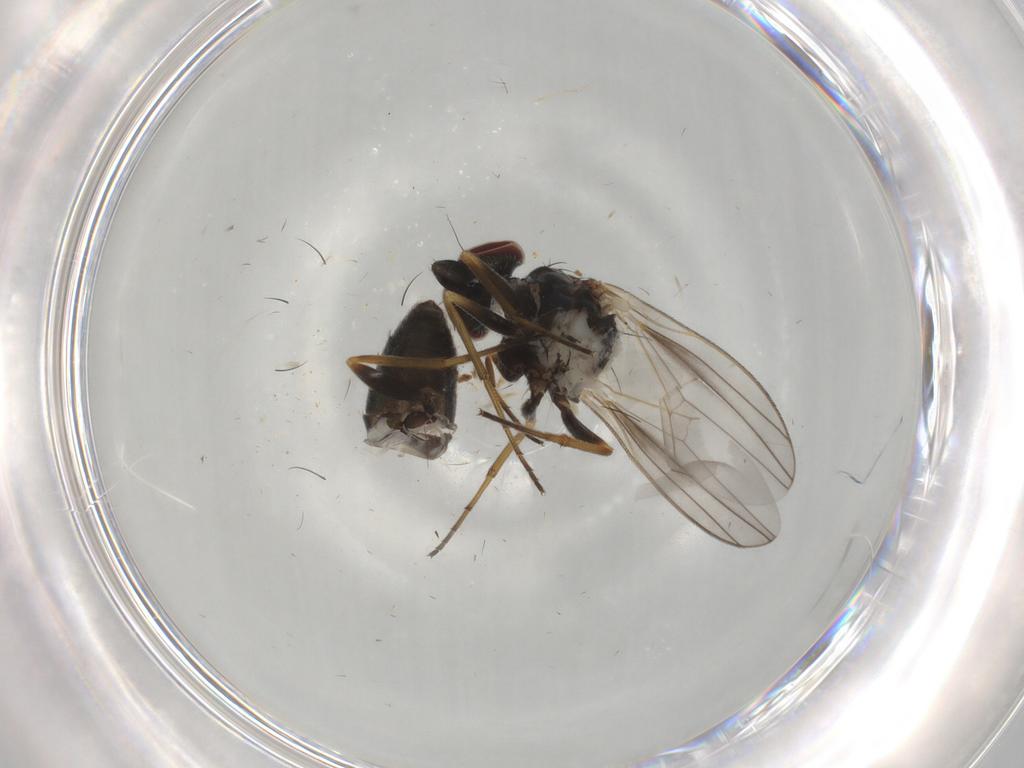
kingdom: Animalia
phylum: Arthropoda
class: Insecta
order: Diptera
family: Dolichopodidae
